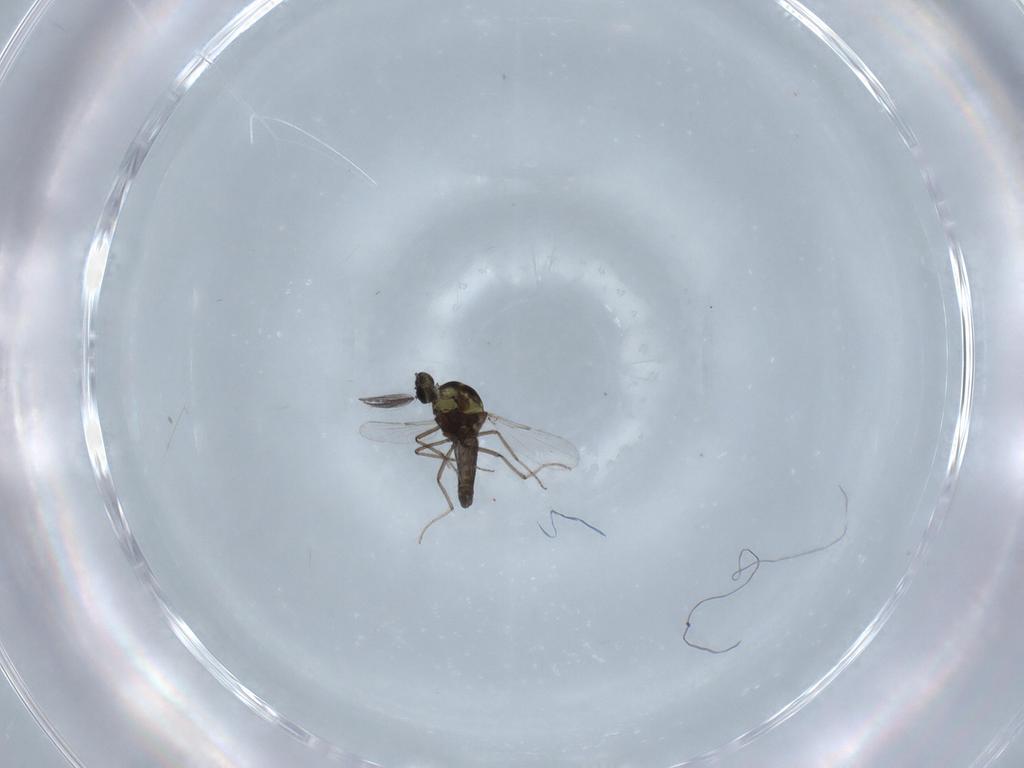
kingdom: Animalia
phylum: Arthropoda
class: Insecta
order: Diptera
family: Ceratopogonidae
